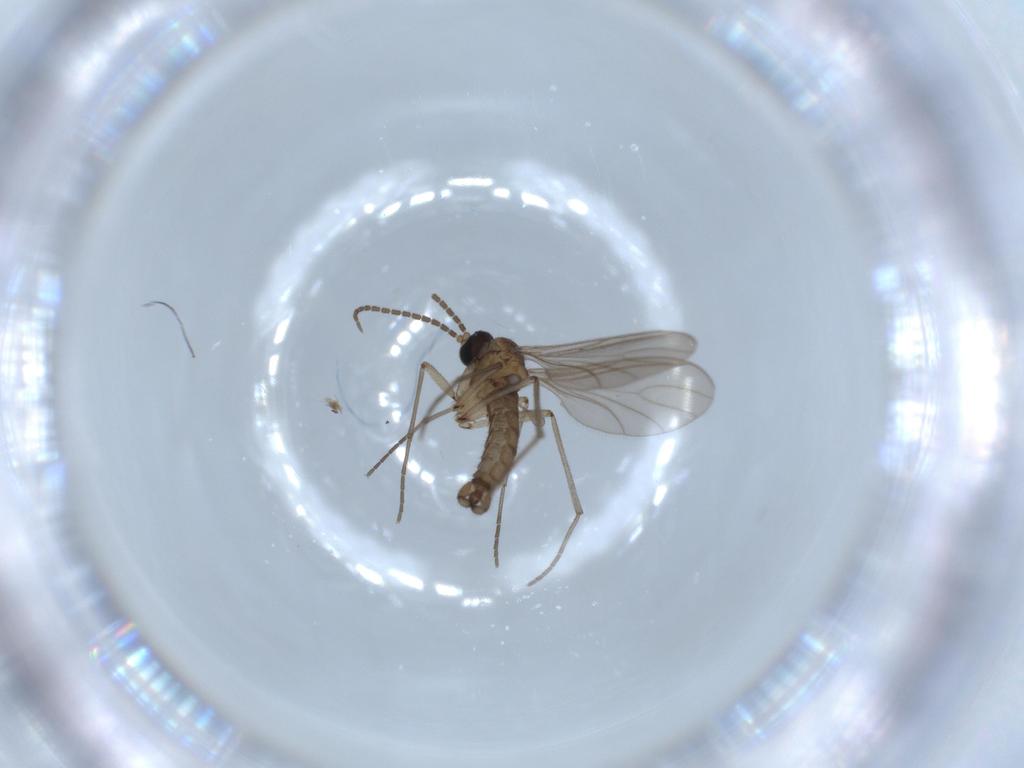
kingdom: Animalia
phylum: Arthropoda
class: Insecta
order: Diptera
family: Sciaridae
